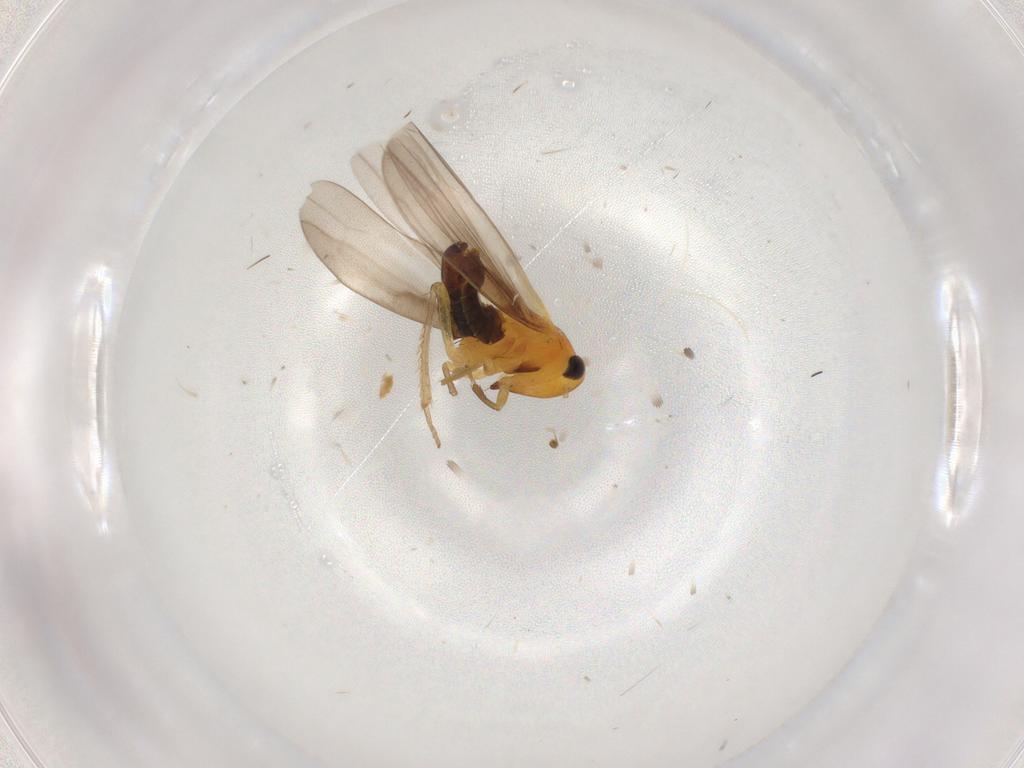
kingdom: Animalia
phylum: Arthropoda
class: Insecta
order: Hemiptera
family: Cicadellidae
